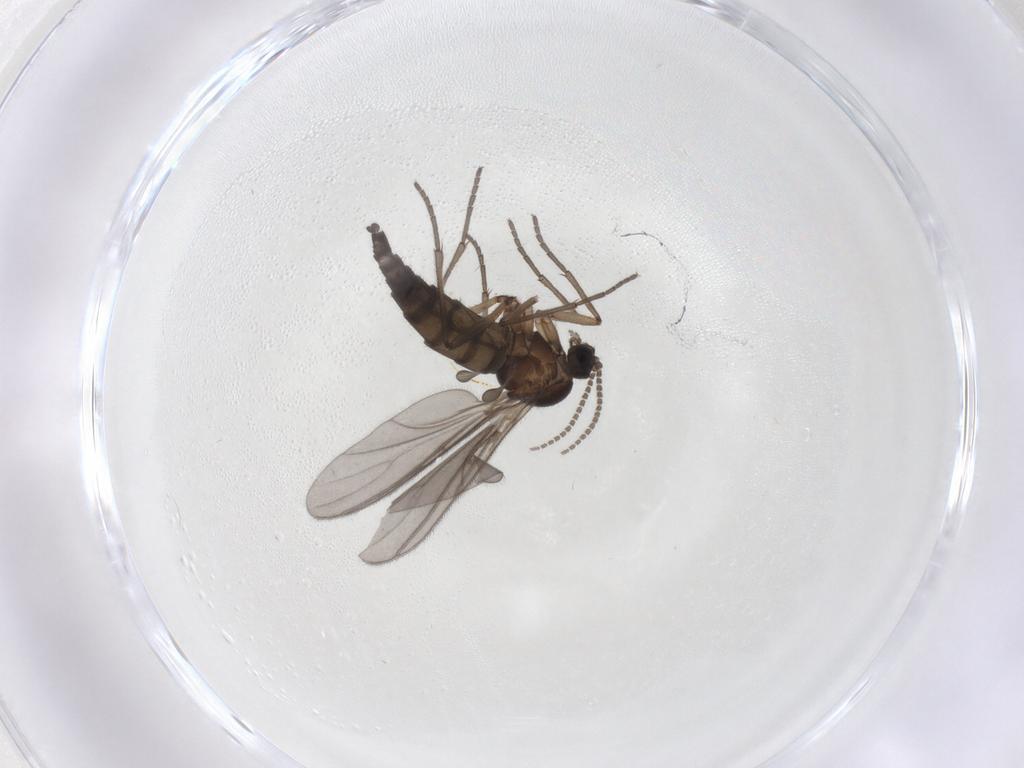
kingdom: Animalia
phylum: Arthropoda
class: Insecta
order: Diptera
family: Sciaridae
